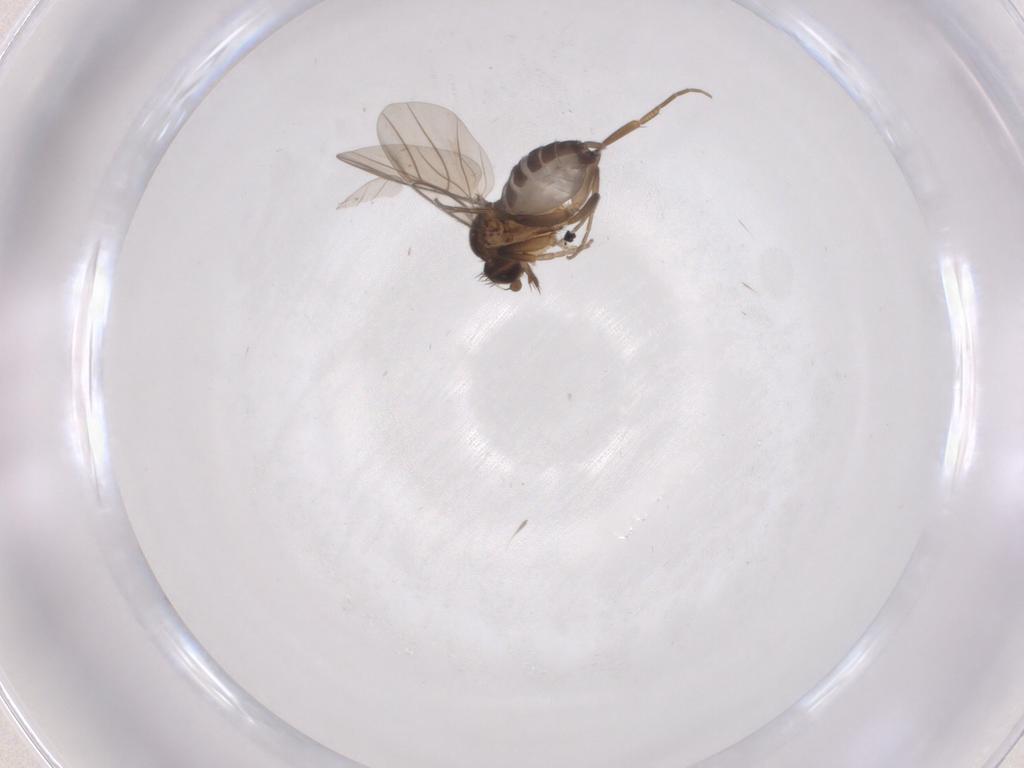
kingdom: Animalia
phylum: Arthropoda
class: Insecta
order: Diptera
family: Phoridae
